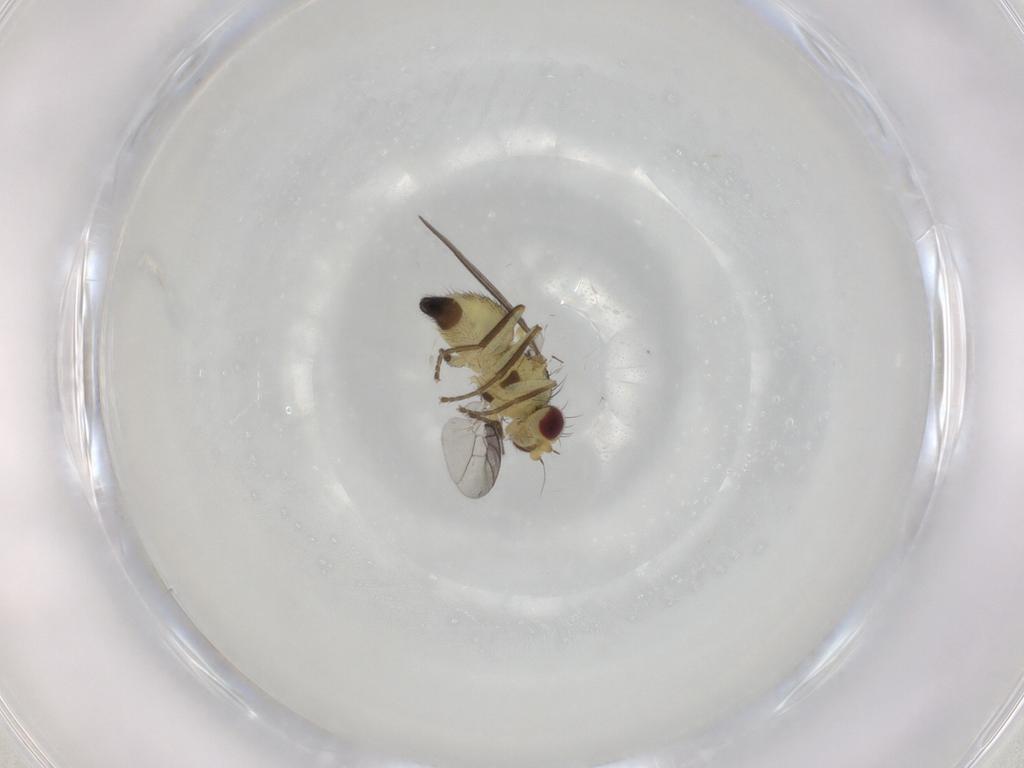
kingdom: Animalia
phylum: Arthropoda
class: Insecta
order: Diptera
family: Agromyzidae
